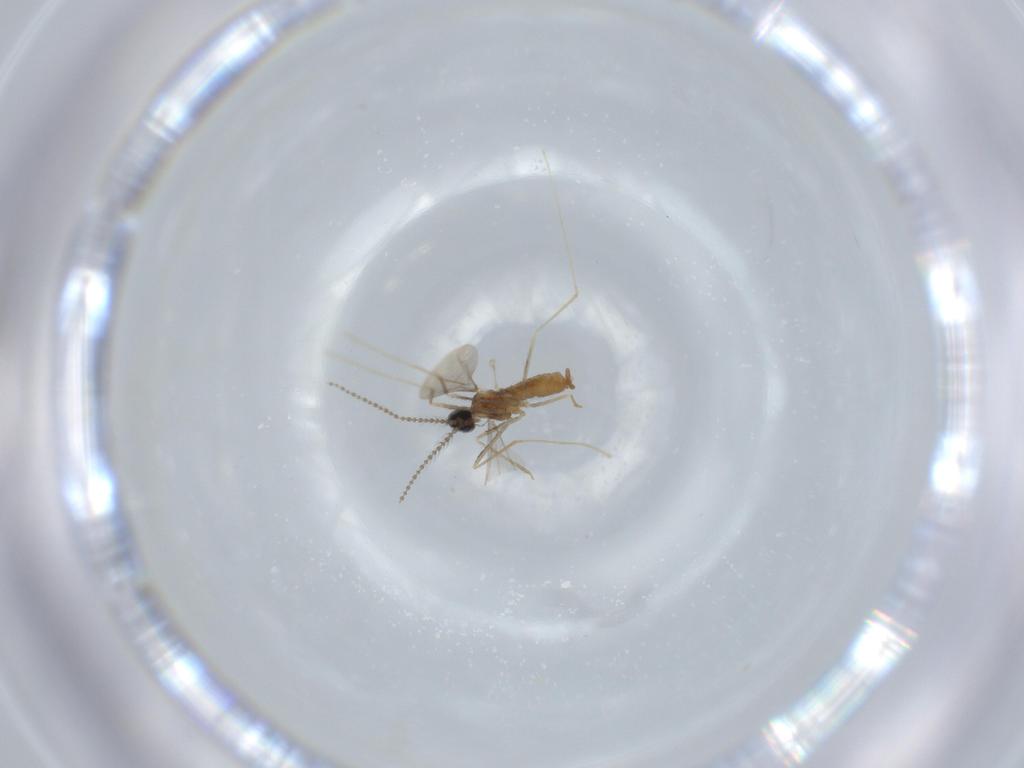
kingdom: Animalia
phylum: Arthropoda
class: Insecta
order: Diptera
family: Cecidomyiidae
